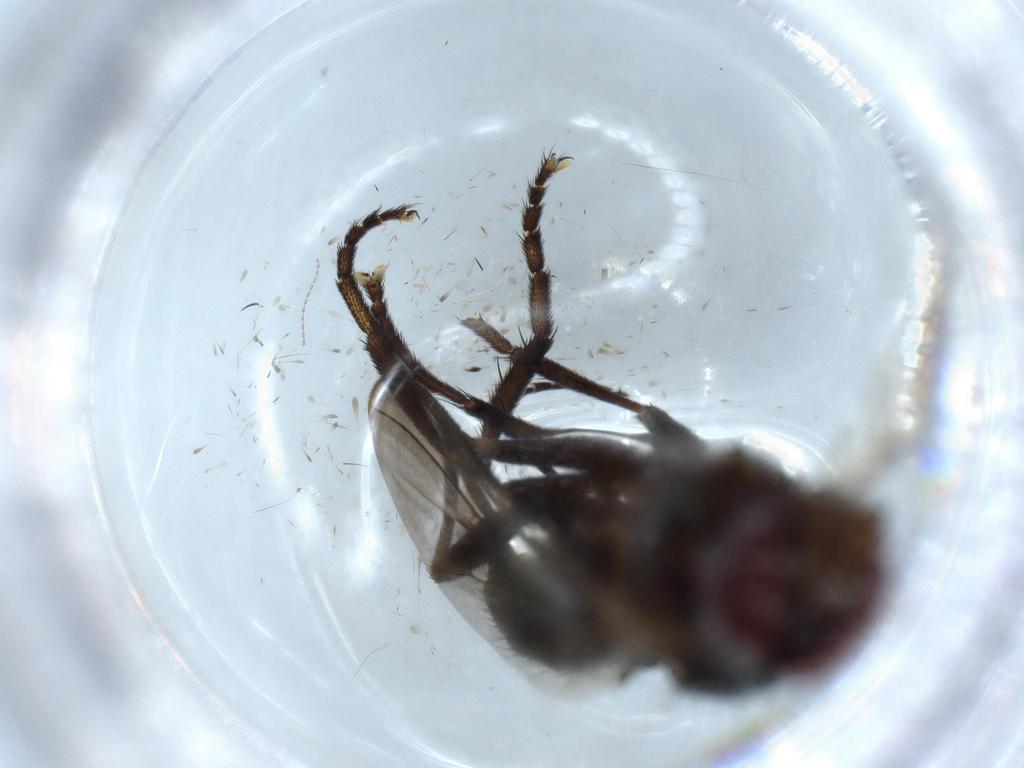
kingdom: Animalia
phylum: Arthropoda
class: Insecta
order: Diptera
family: Calliphoridae
